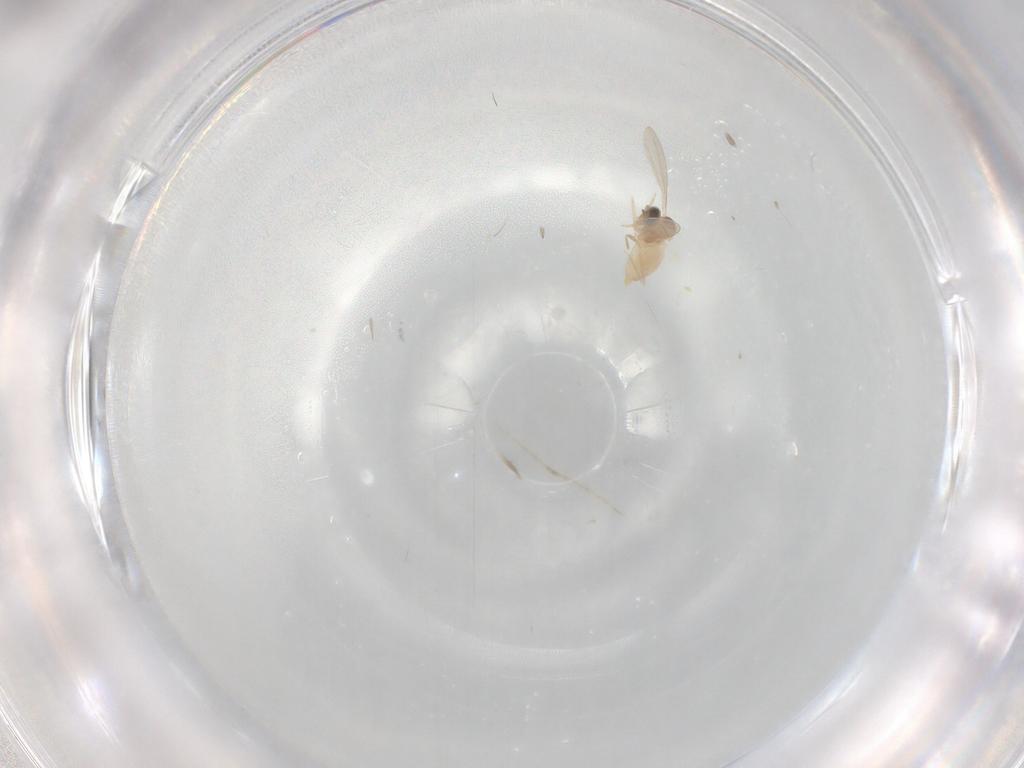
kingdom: Animalia
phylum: Arthropoda
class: Insecta
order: Diptera
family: Cecidomyiidae
